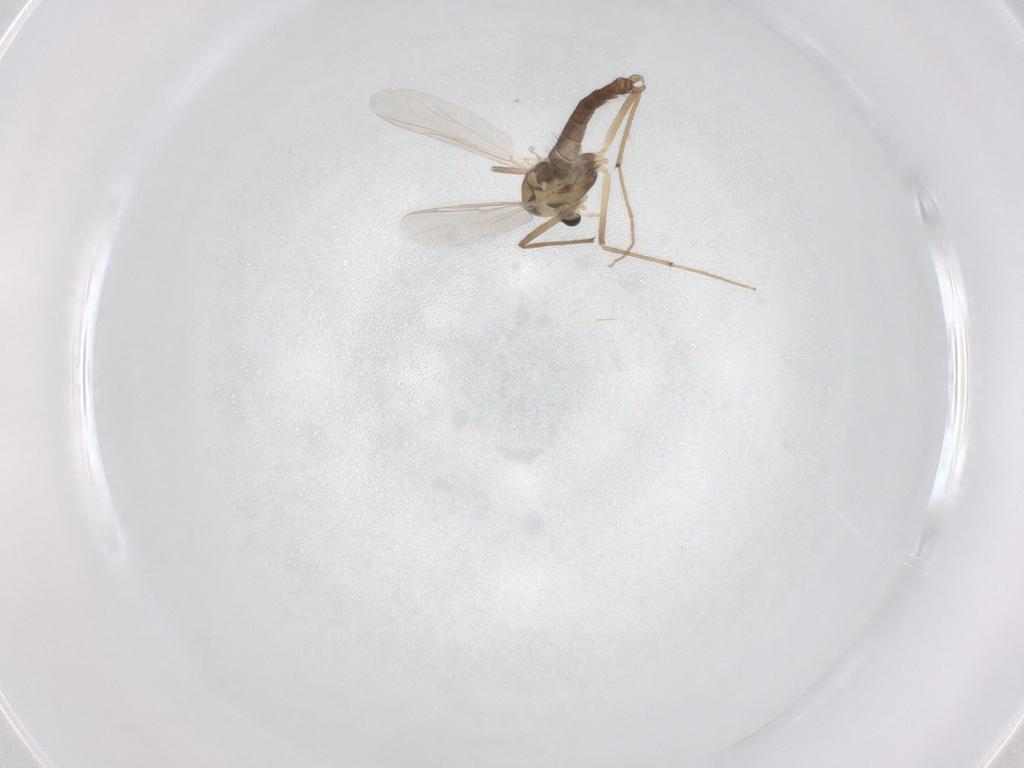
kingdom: Animalia
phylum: Arthropoda
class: Insecta
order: Diptera
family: Chironomidae
